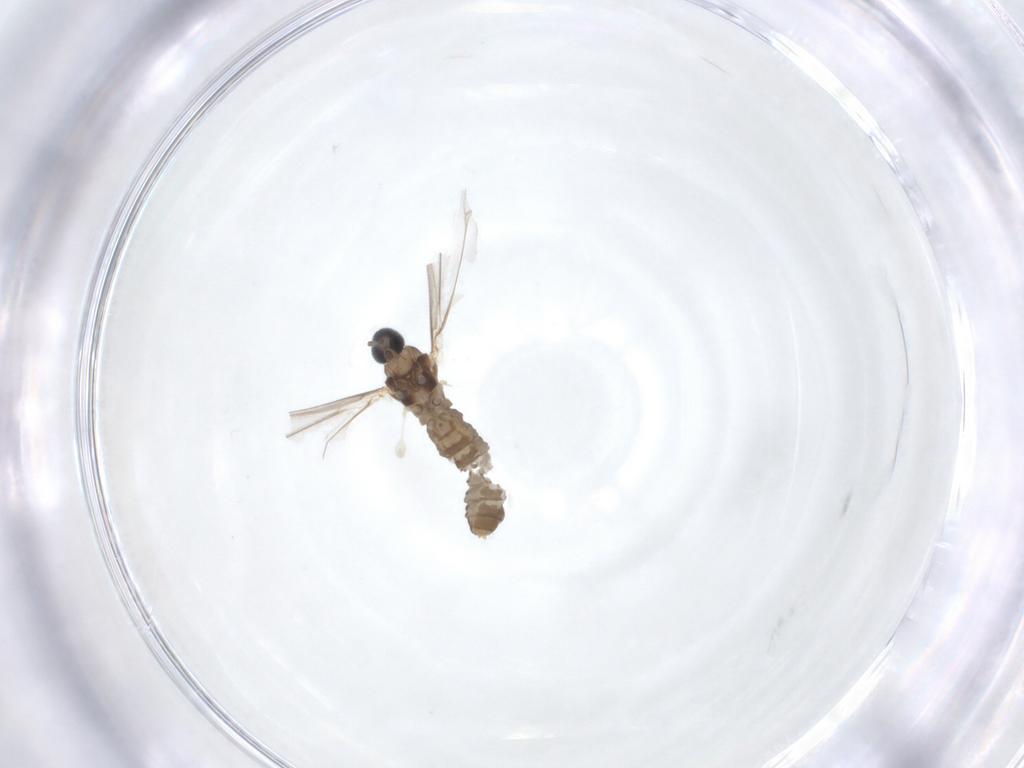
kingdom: Animalia
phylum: Arthropoda
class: Insecta
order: Diptera
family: Cecidomyiidae
